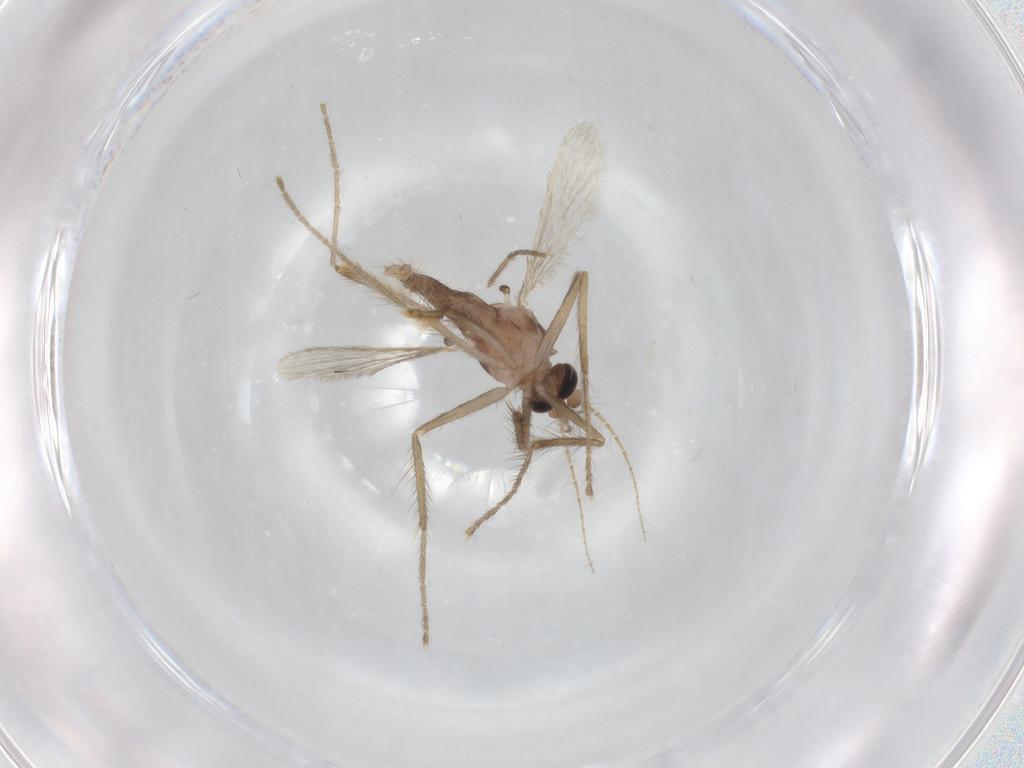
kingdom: Animalia
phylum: Arthropoda
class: Insecta
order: Diptera
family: Corethrellidae
